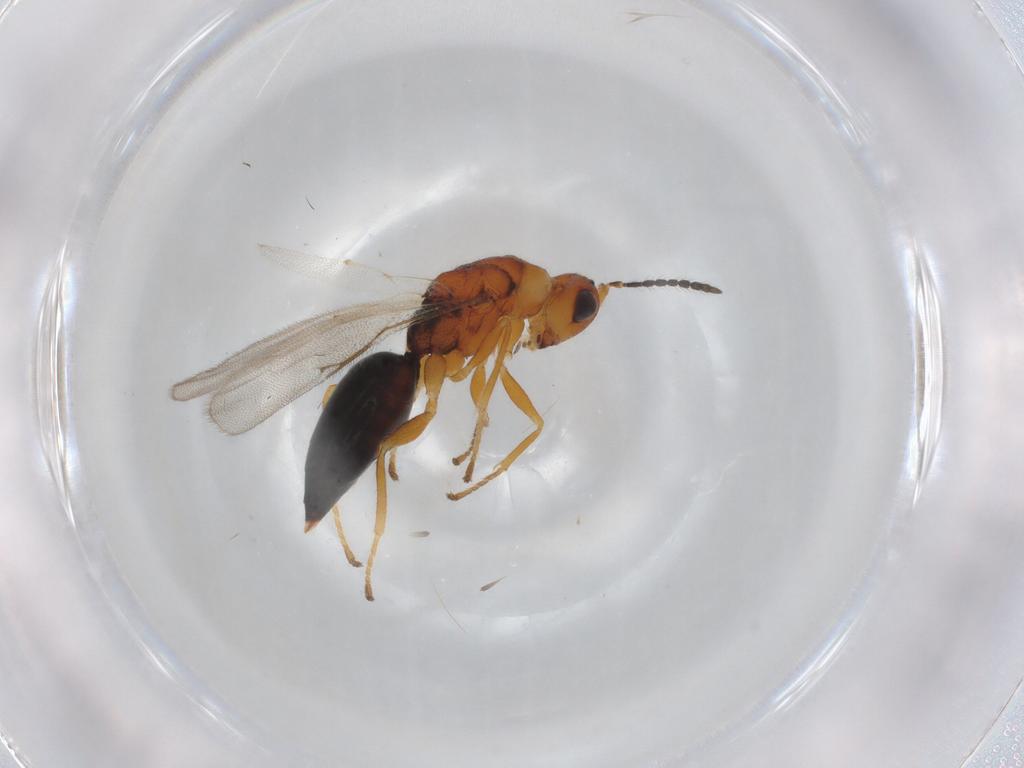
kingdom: Animalia
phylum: Arthropoda
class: Insecta
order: Hymenoptera
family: Eurytomidae
